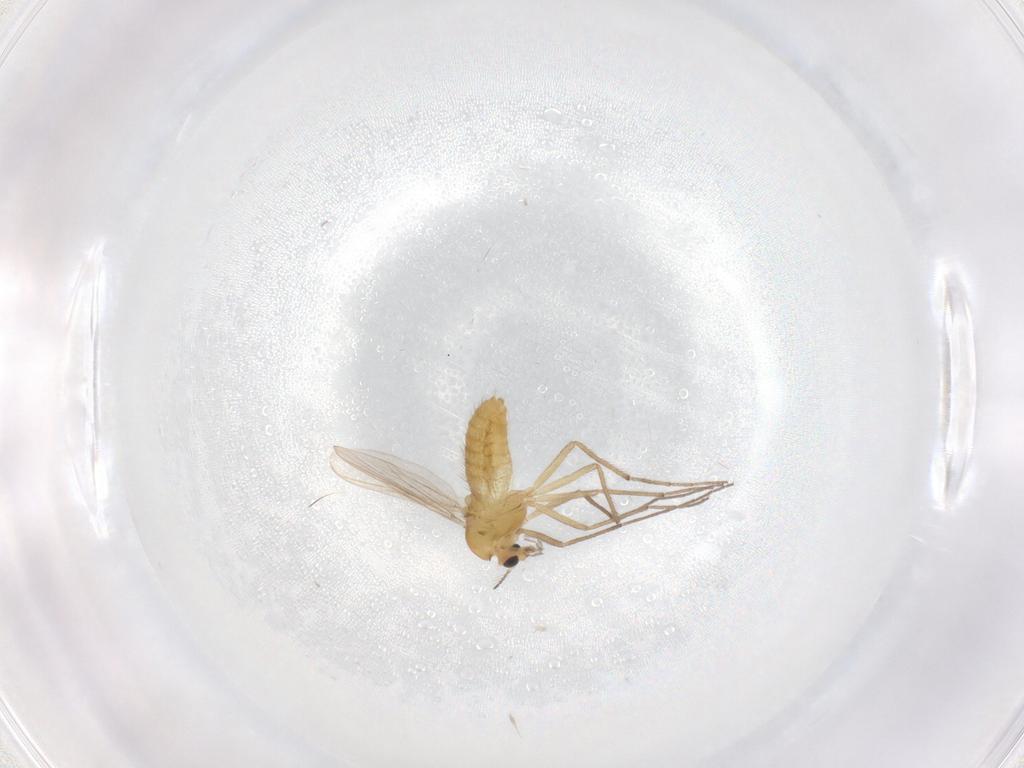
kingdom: Animalia
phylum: Arthropoda
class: Insecta
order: Diptera
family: Chironomidae
